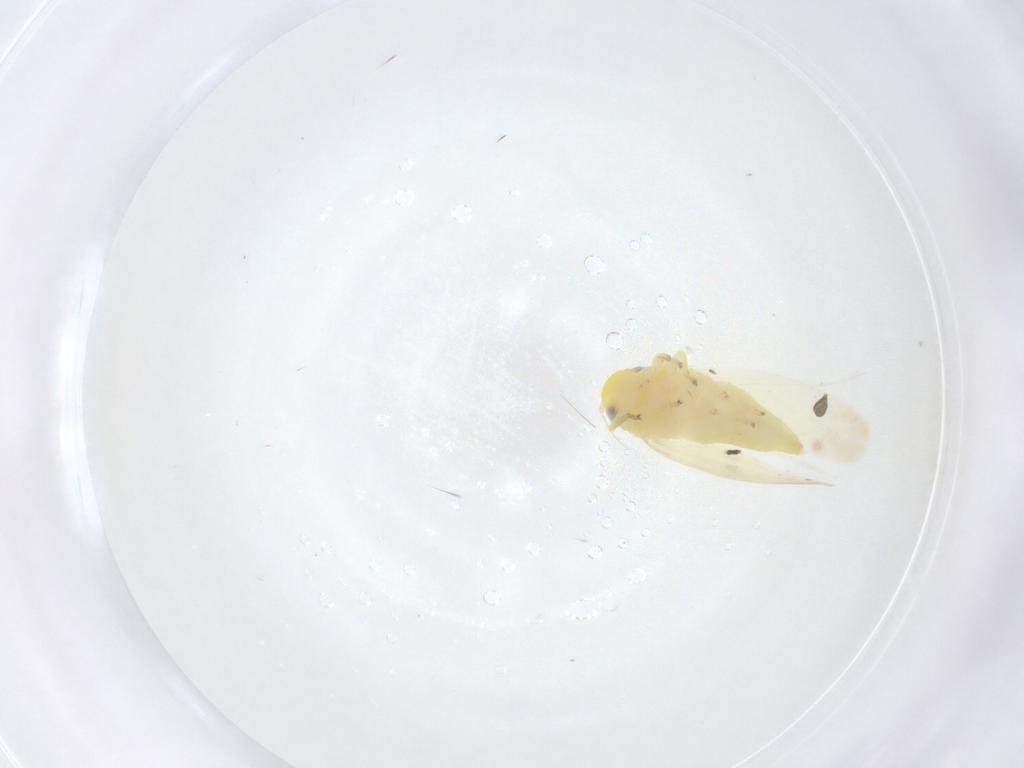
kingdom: Animalia
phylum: Arthropoda
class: Insecta
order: Hemiptera
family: Cicadellidae
